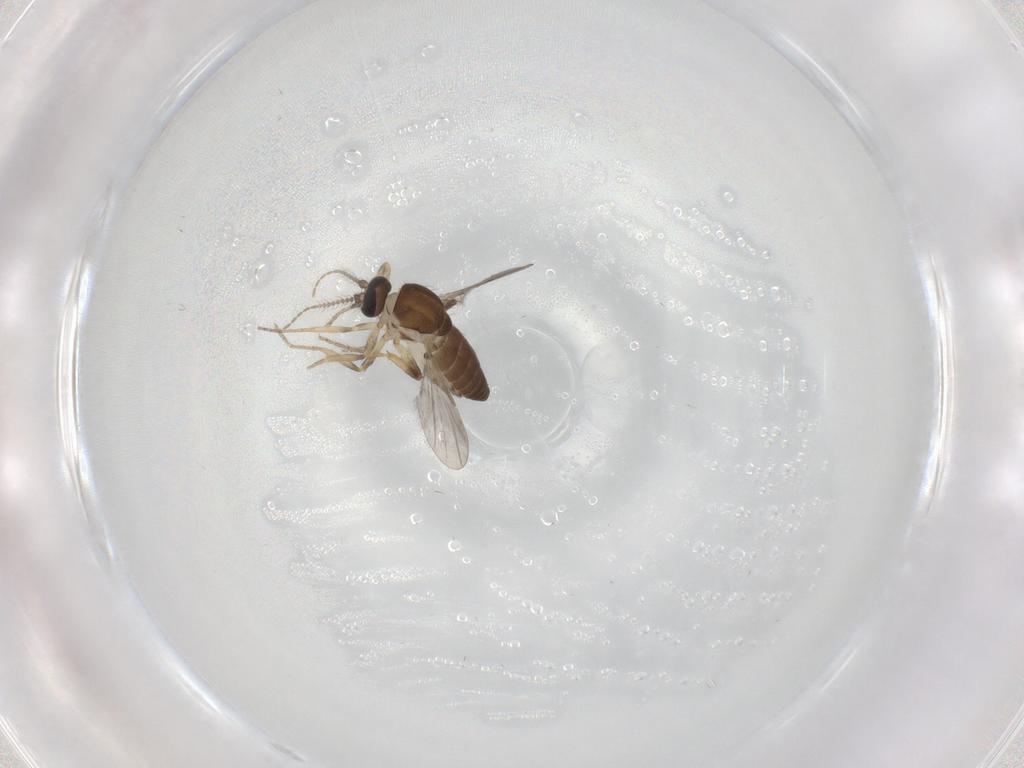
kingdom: Animalia
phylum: Arthropoda
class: Insecta
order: Diptera
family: Ceratopogonidae
